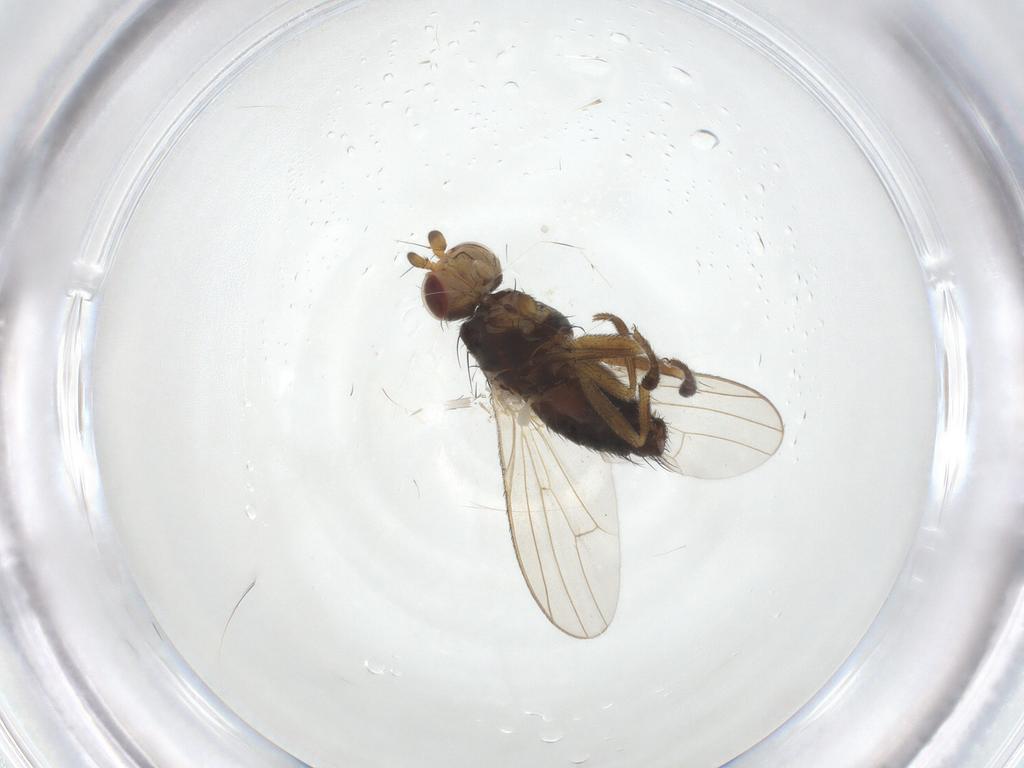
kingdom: Animalia
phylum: Arthropoda
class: Insecta
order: Diptera
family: Heleomyzidae
